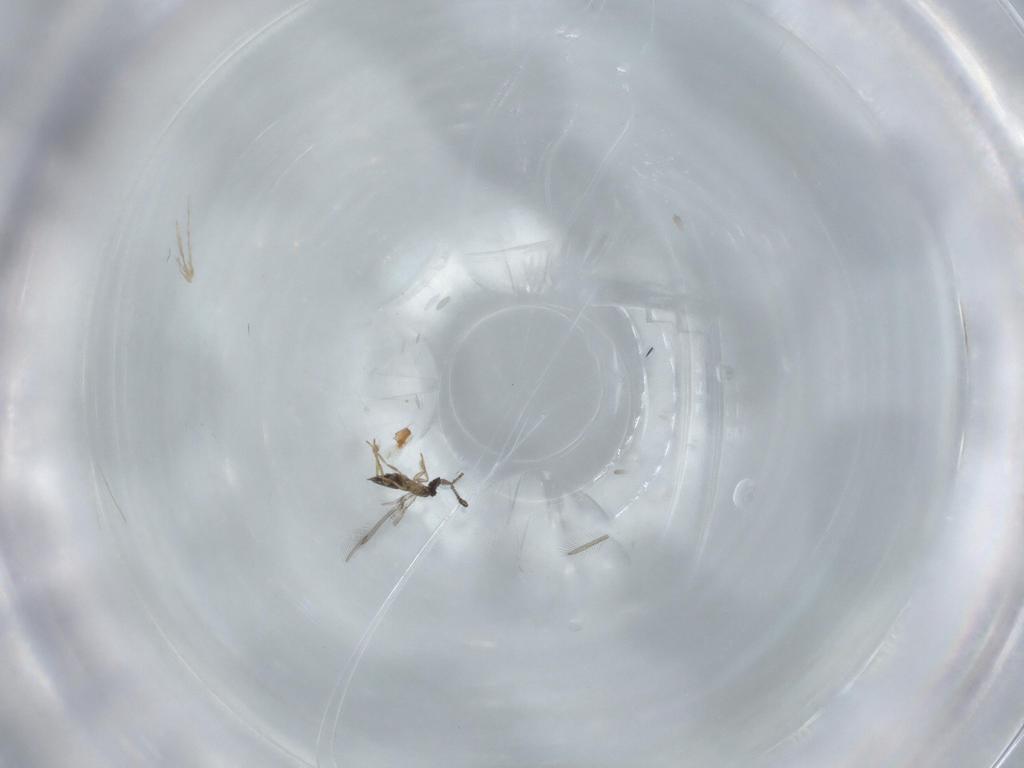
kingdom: Animalia
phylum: Arthropoda
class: Insecta
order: Hymenoptera
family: Mymaridae
